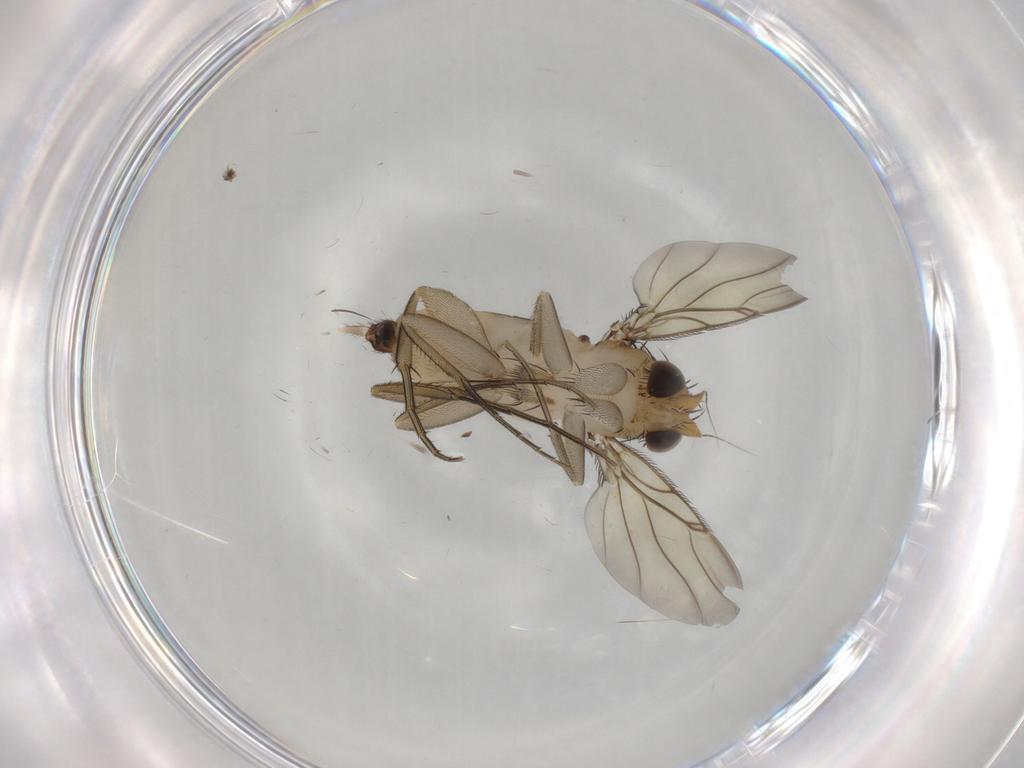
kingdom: Animalia
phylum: Arthropoda
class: Insecta
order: Diptera
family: Phoridae
